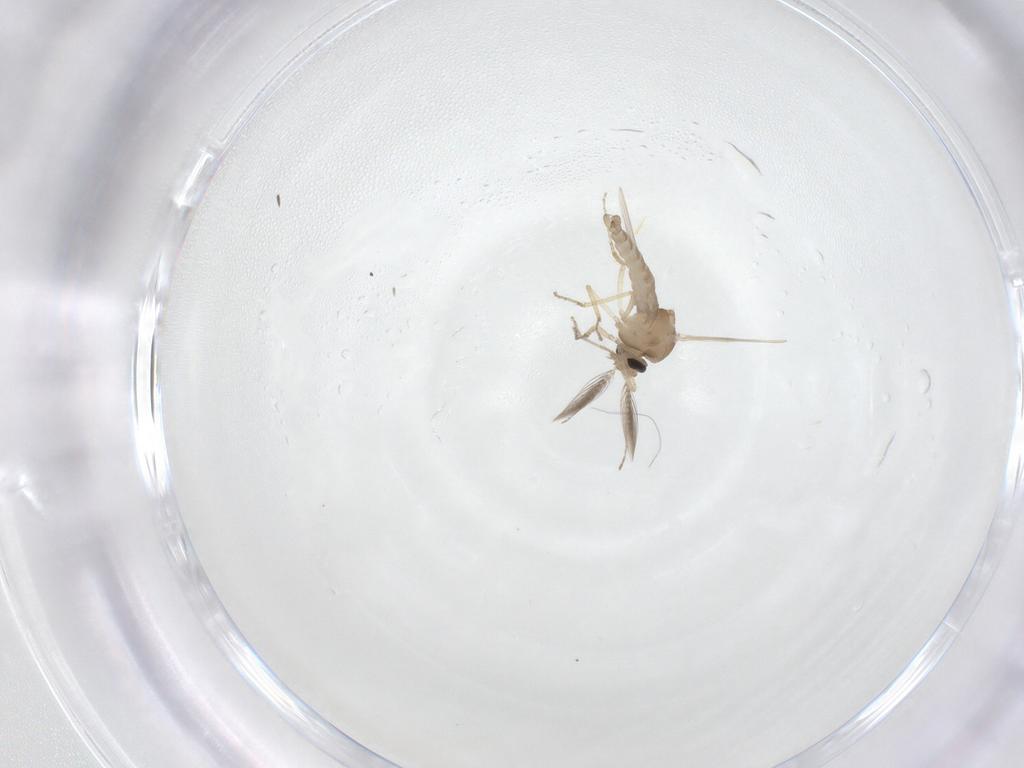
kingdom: Animalia
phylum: Arthropoda
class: Insecta
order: Diptera
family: Ceratopogonidae
